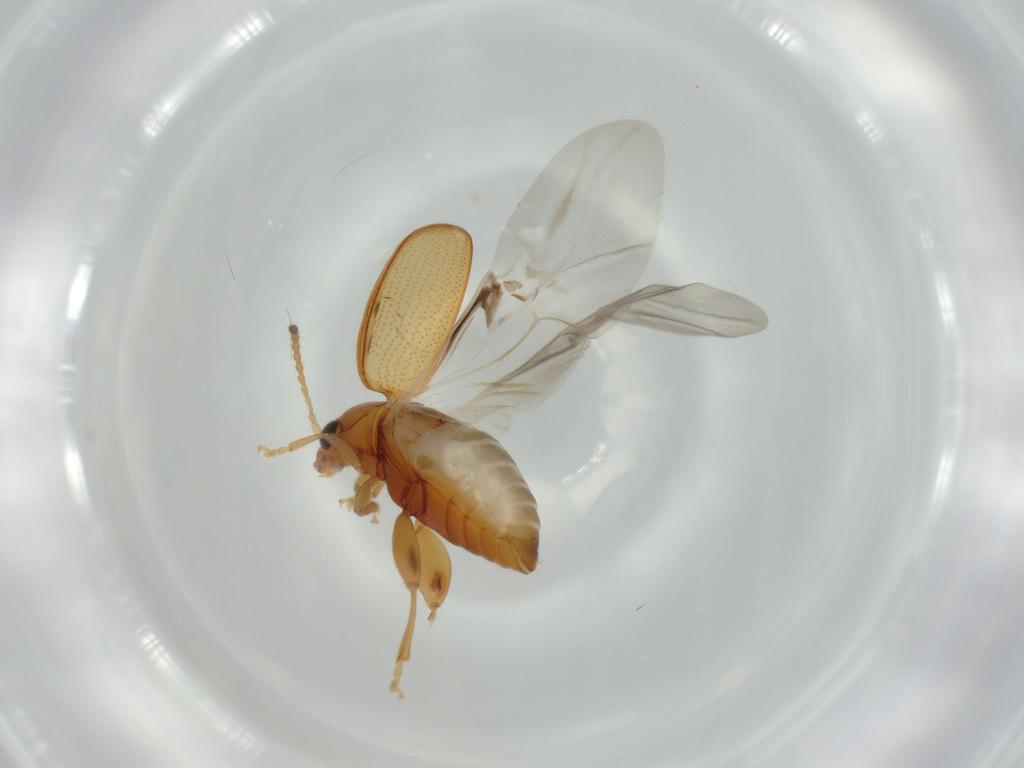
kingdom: Animalia
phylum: Arthropoda
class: Insecta
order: Coleoptera
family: Chrysomelidae
